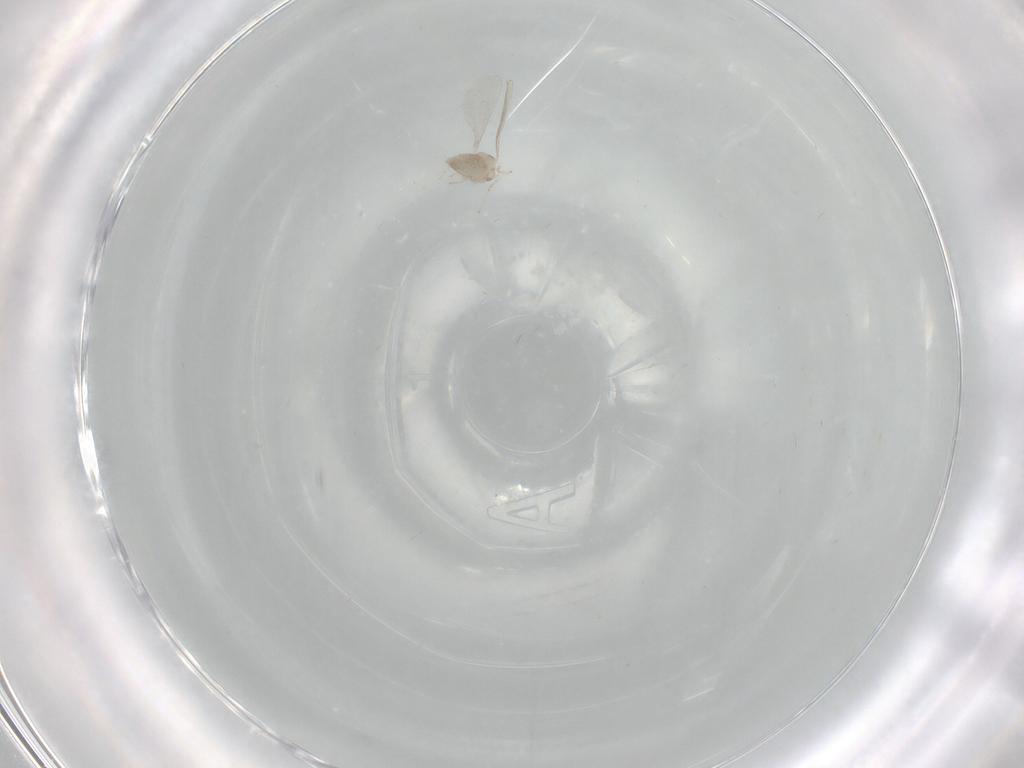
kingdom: Animalia
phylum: Arthropoda
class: Insecta
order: Diptera
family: Cecidomyiidae
